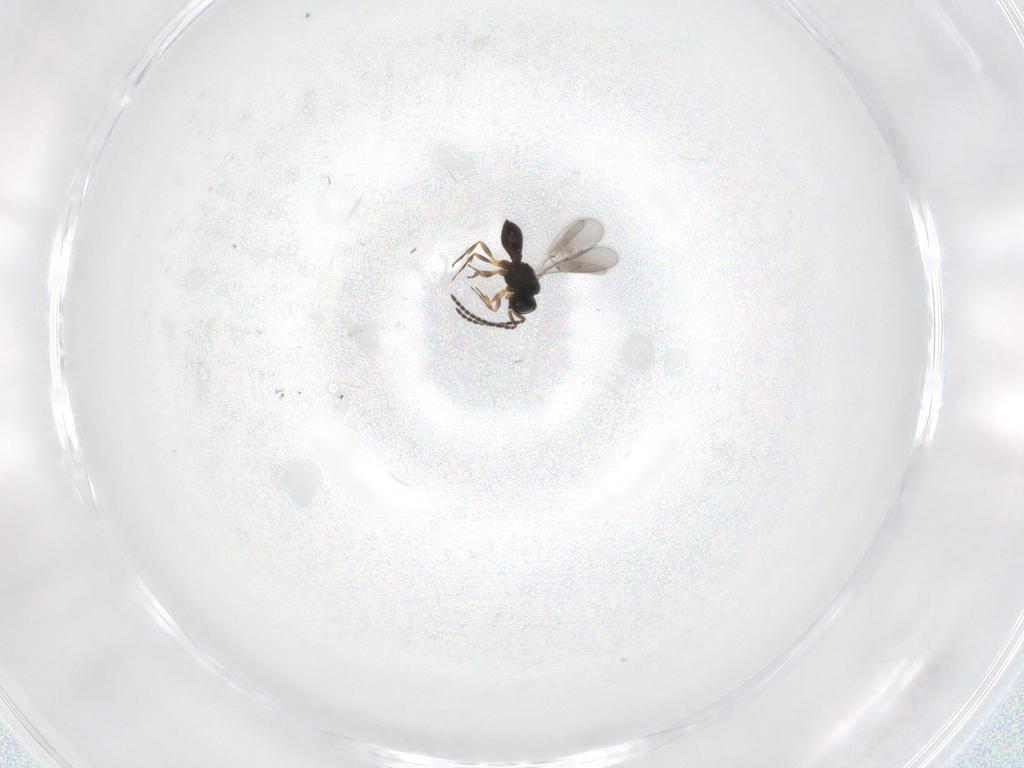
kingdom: Animalia
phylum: Arthropoda
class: Insecta
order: Hymenoptera
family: Scelionidae
